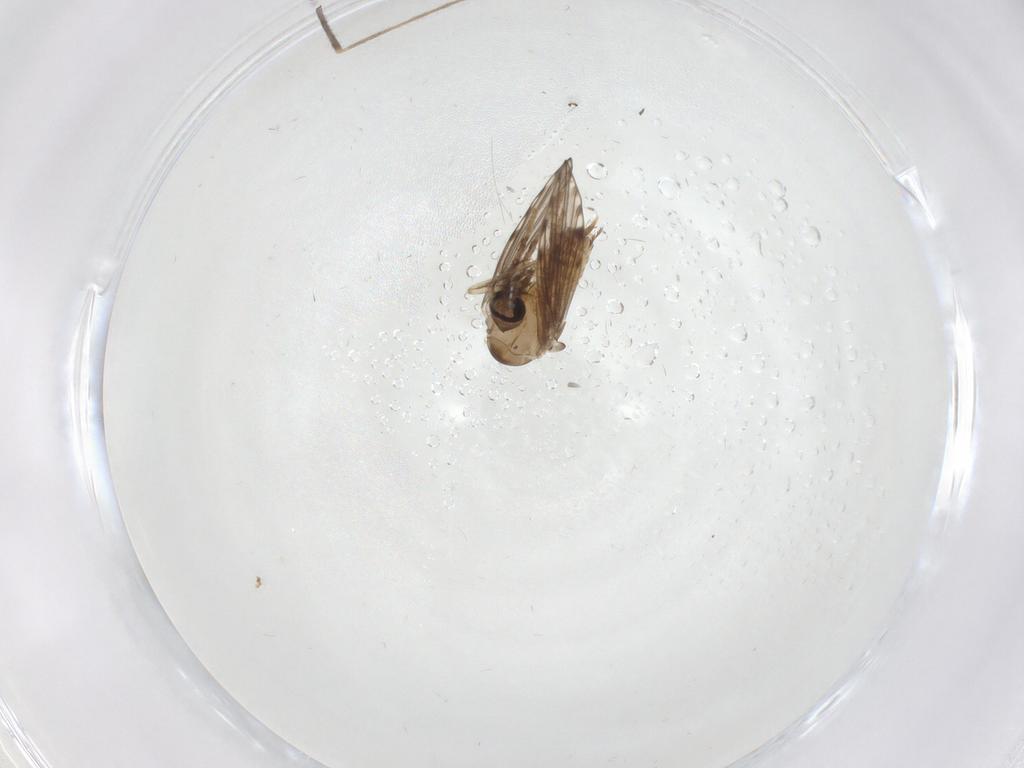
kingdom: Animalia
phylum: Arthropoda
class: Insecta
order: Diptera
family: Psychodidae
